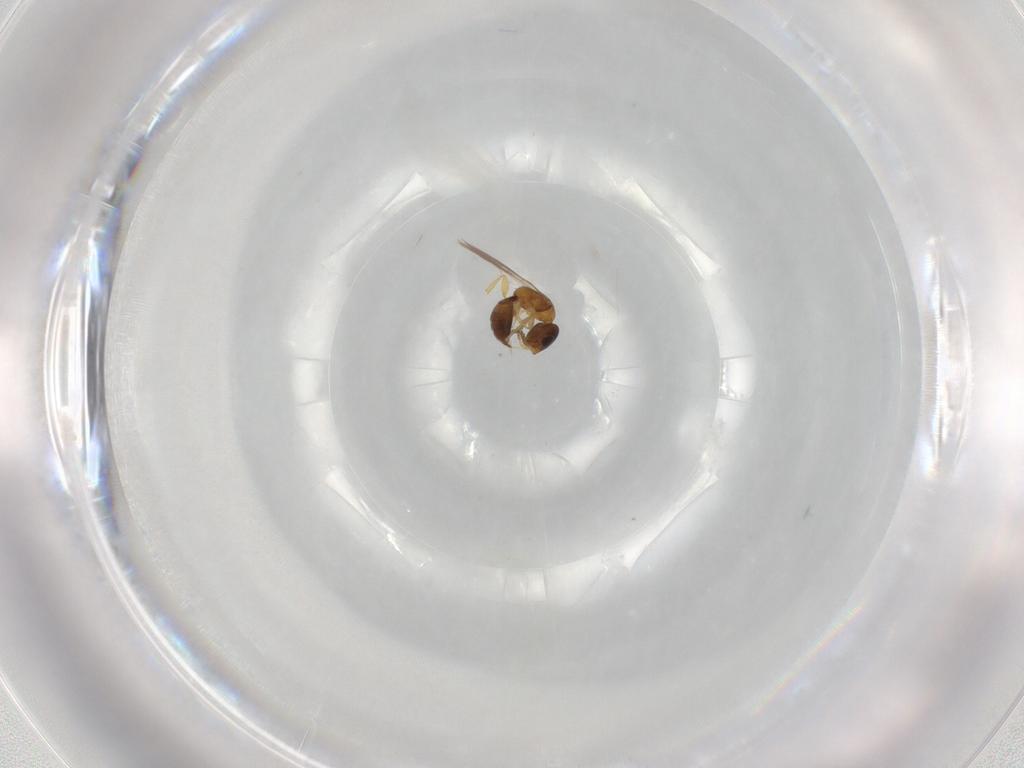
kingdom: Animalia
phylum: Arthropoda
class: Insecta
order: Hymenoptera
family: Bethylidae
